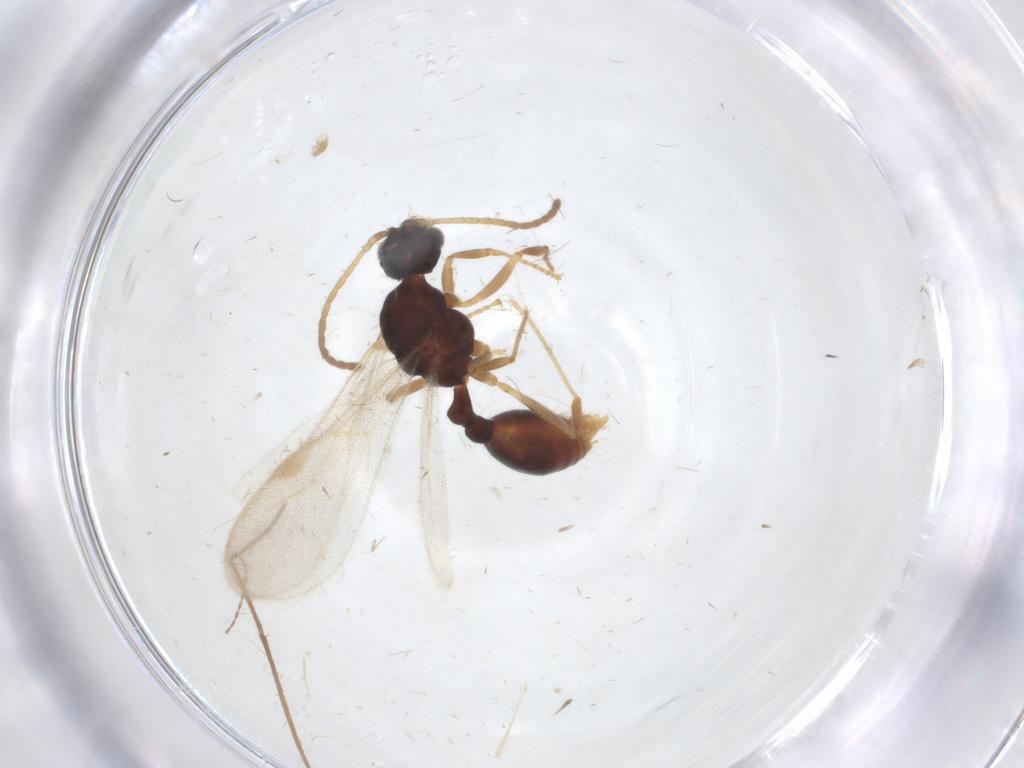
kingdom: Animalia
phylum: Arthropoda
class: Insecta
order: Hymenoptera
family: Formicidae
